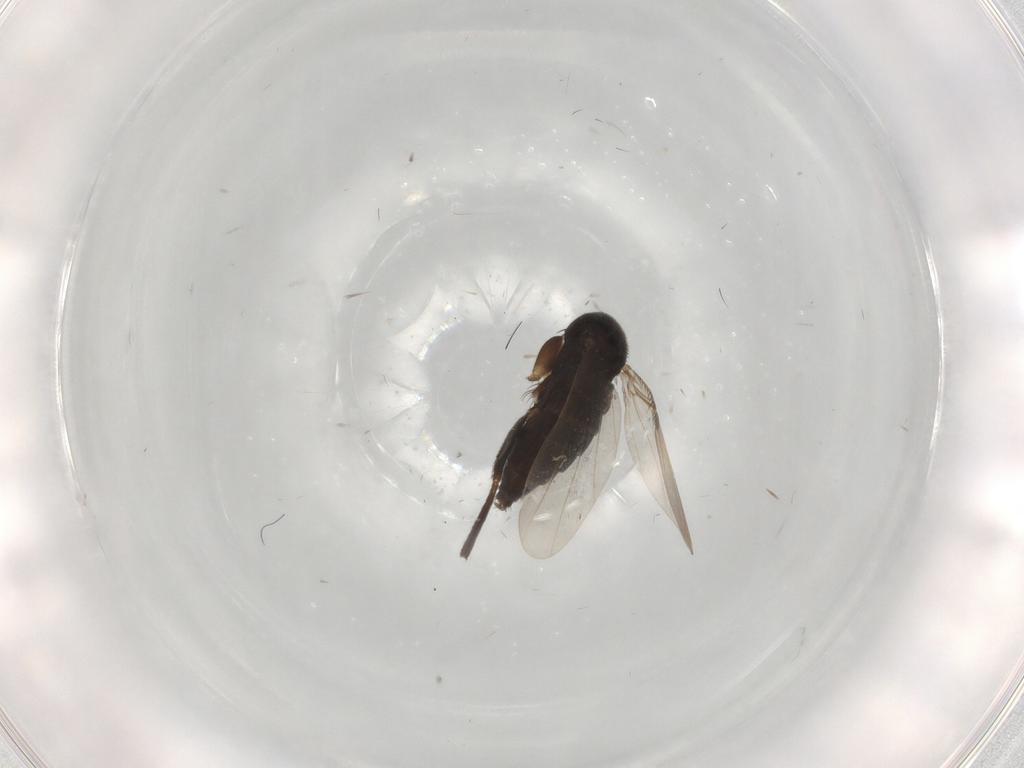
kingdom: Animalia
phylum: Arthropoda
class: Insecta
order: Diptera
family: Phoridae
